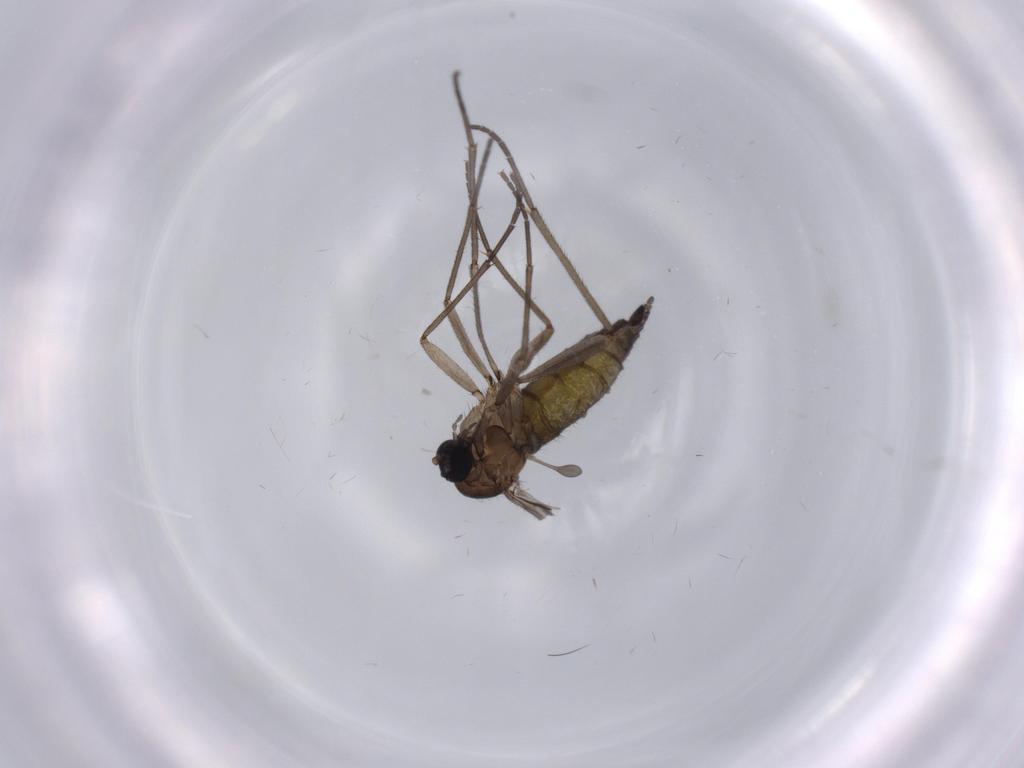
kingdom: Animalia
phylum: Arthropoda
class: Insecta
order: Diptera
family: Sciaridae
